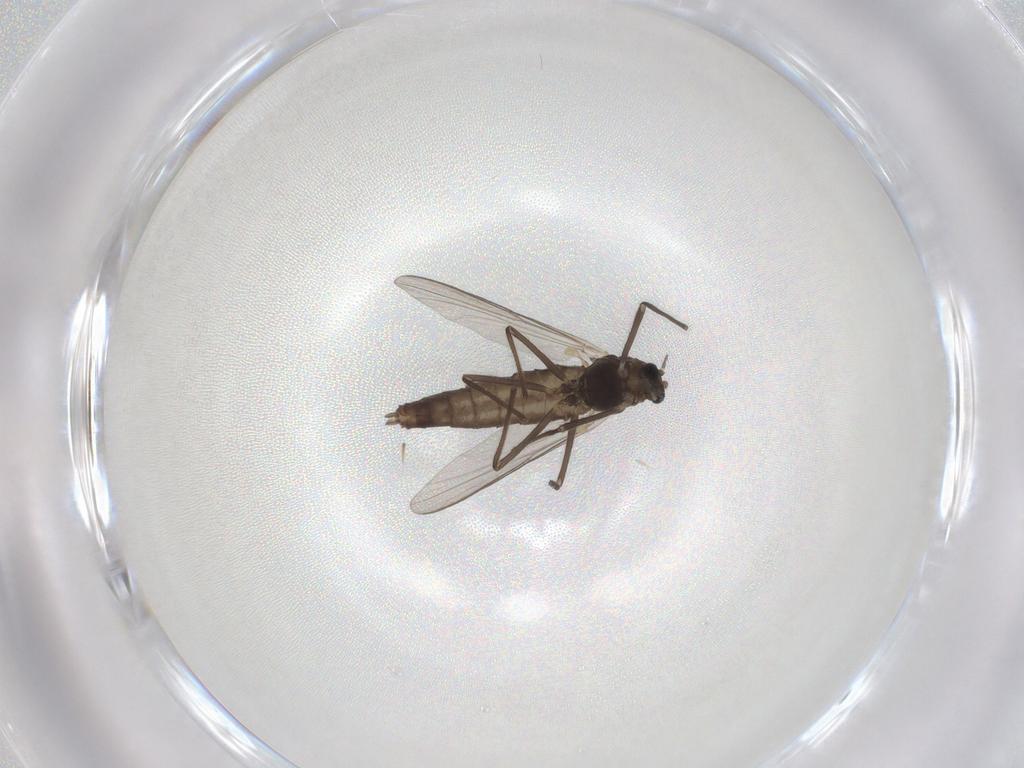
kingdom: Animalia
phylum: Arthropoda
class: Insecta
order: Diptera
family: Chironomidae
